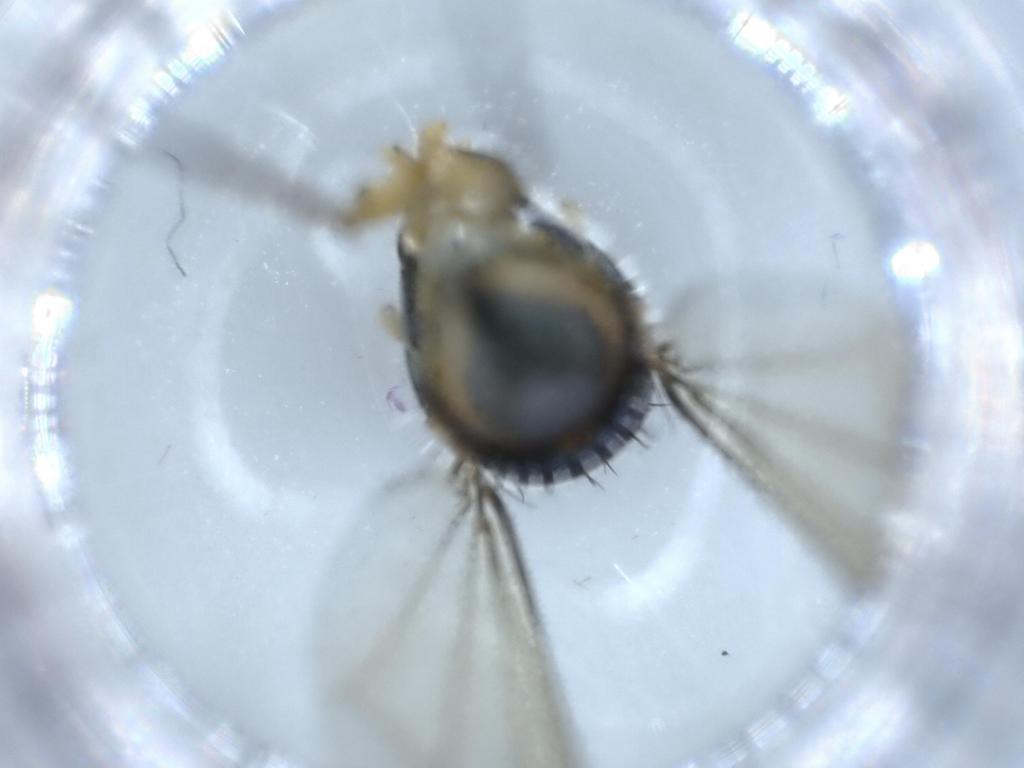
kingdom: Animalia
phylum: Arthropoda
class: Insecta
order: Diptera
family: Dolichopodidae
